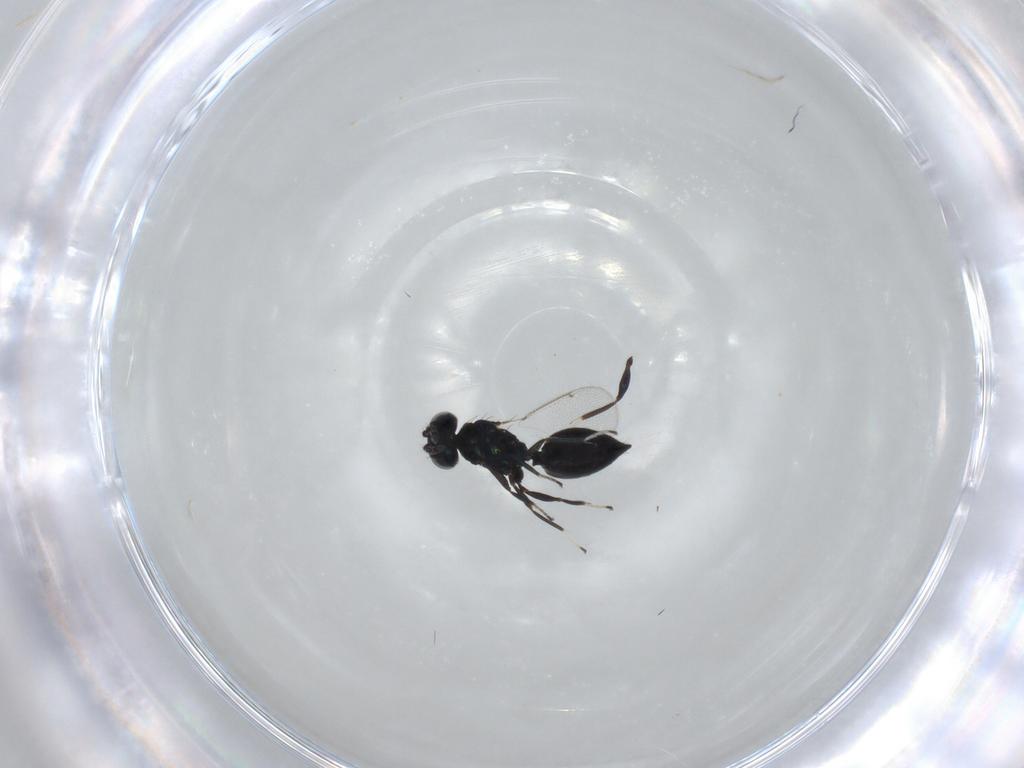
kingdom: Animalia
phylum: Arthropoda
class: Insecta
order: Hymenoptera
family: Eulophidae
